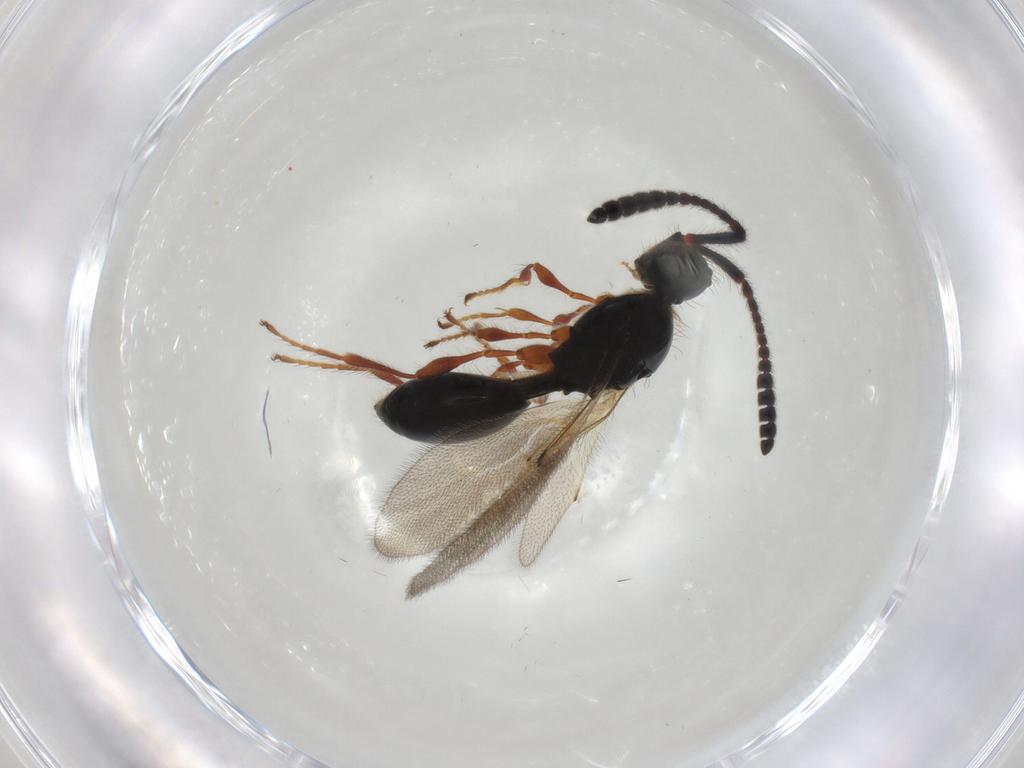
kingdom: Animalia
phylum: Arthropoda
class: Insecta
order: Hymenoptera
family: Diapriidae
